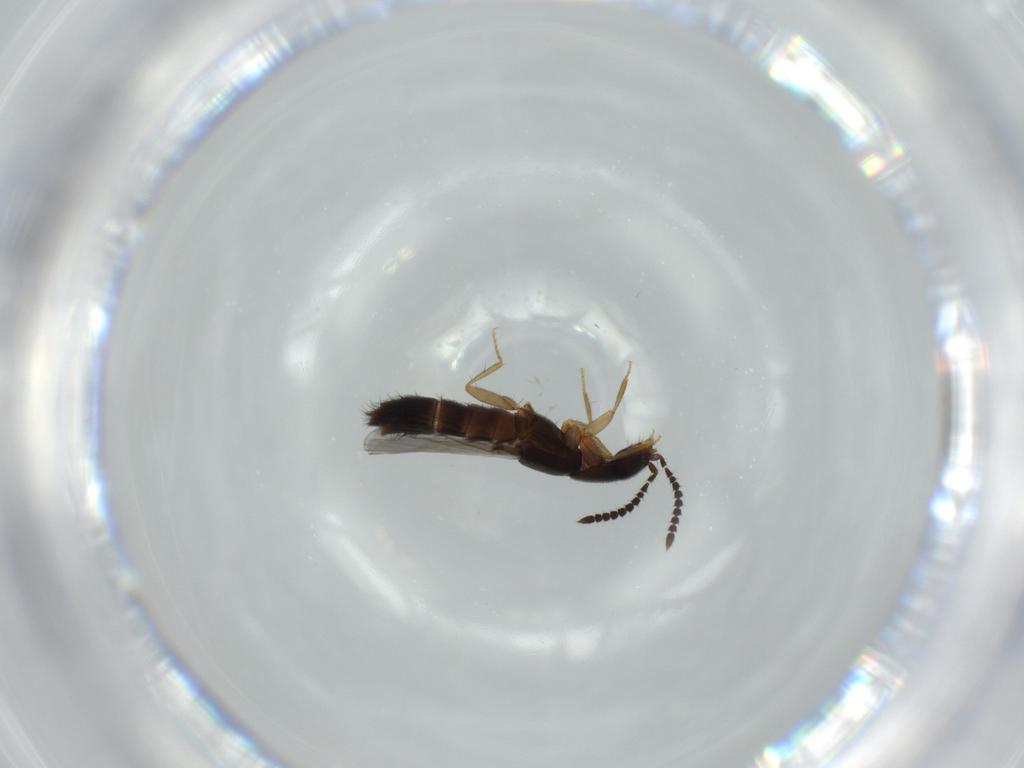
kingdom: Animalia
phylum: Arthropoda
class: Insecta
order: Coleoptera
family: Staphylinidae
